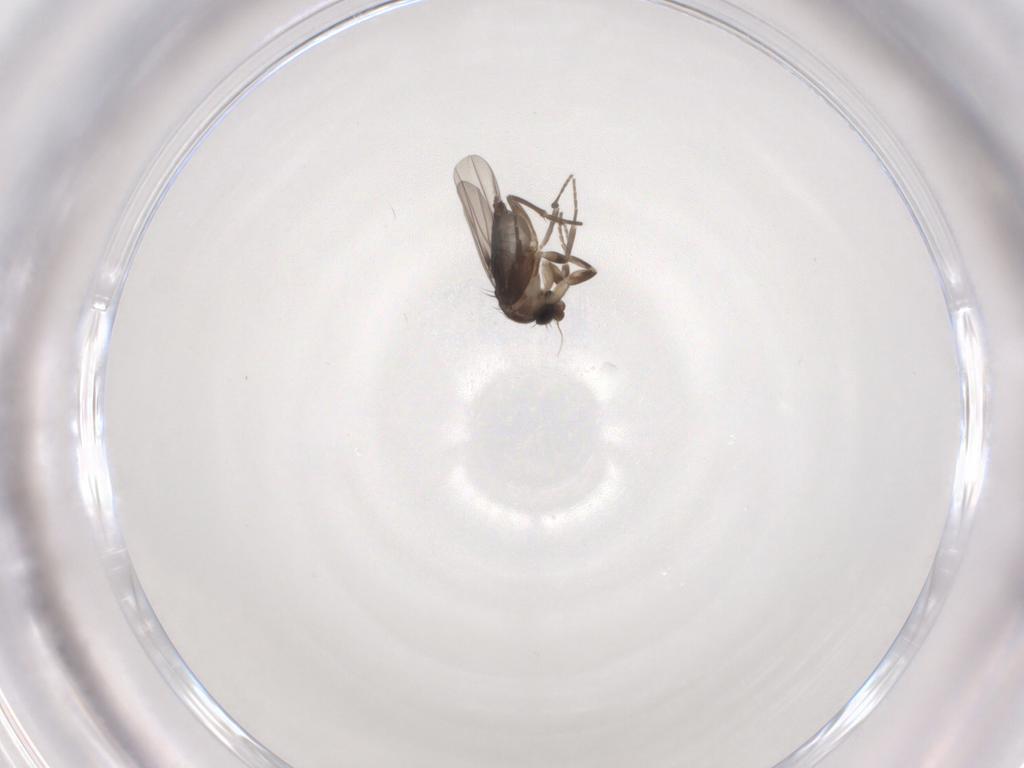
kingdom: Animalia
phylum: Arthropoda
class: Insecta
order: Diptera
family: Phoridae
